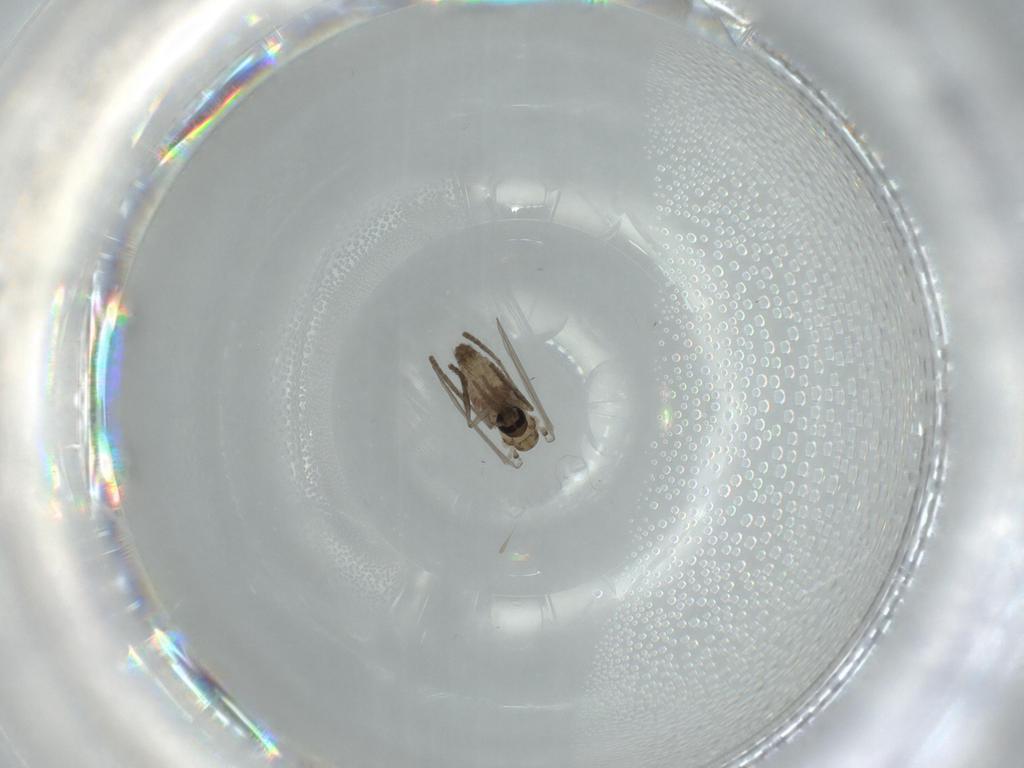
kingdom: Animalia
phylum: Arthropoda
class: Insecta
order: Diptera
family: Psychodidae
